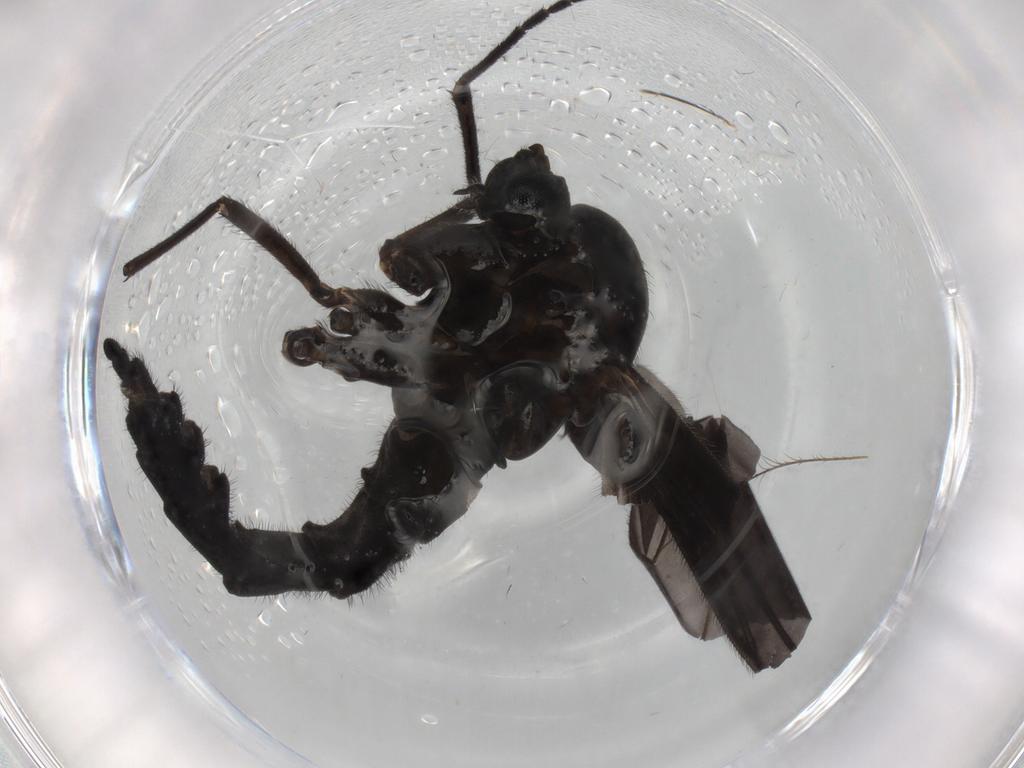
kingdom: Animalia
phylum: Arthropoda
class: Insecta
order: Diptera
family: Sciaridae
